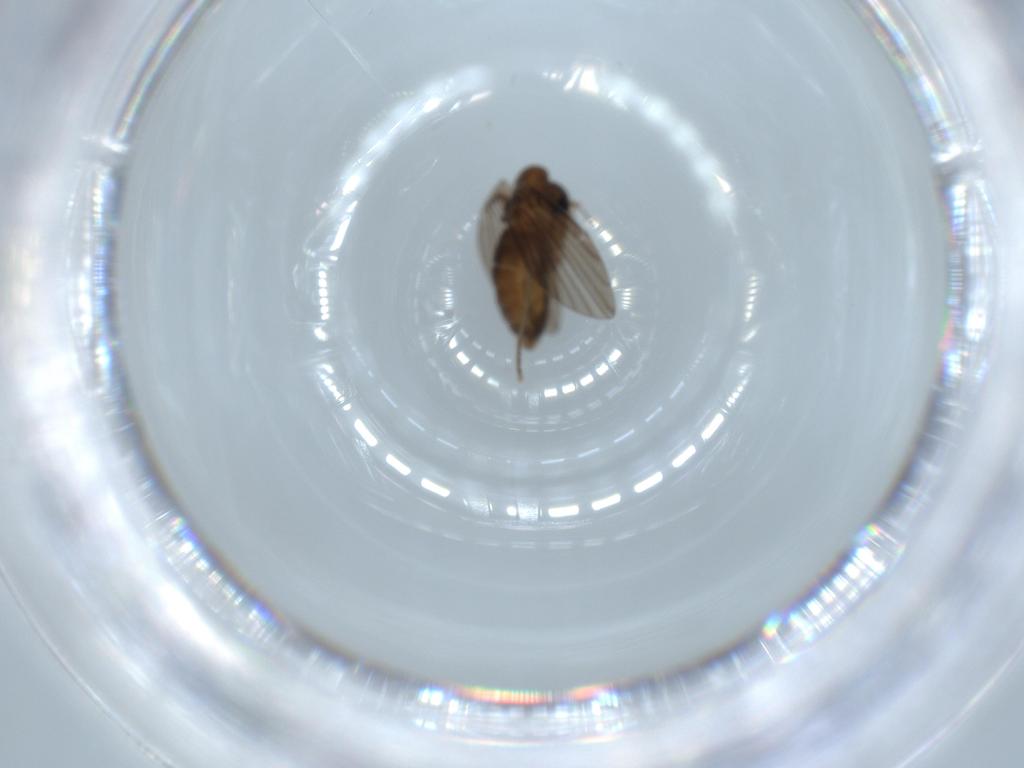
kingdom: Animalia
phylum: Arthropoda
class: Insecta
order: Diptera
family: Psychodidae
